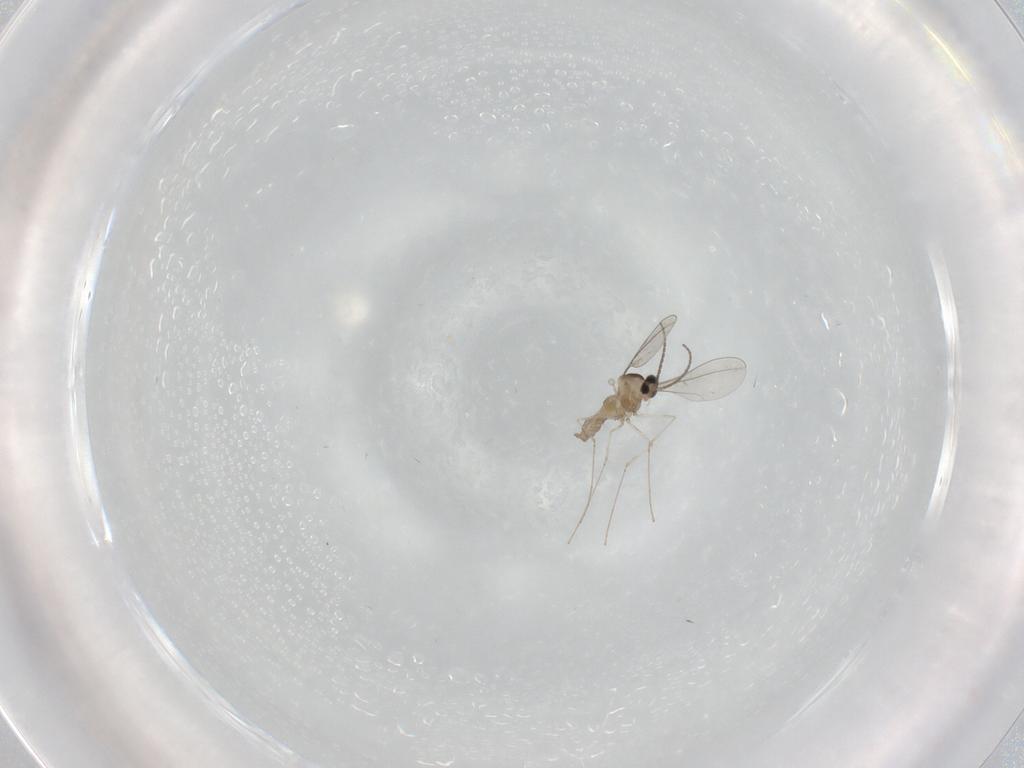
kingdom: Animalia
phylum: Arthropoda
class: Insecta
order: Diptera
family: Cecidomyiidae
